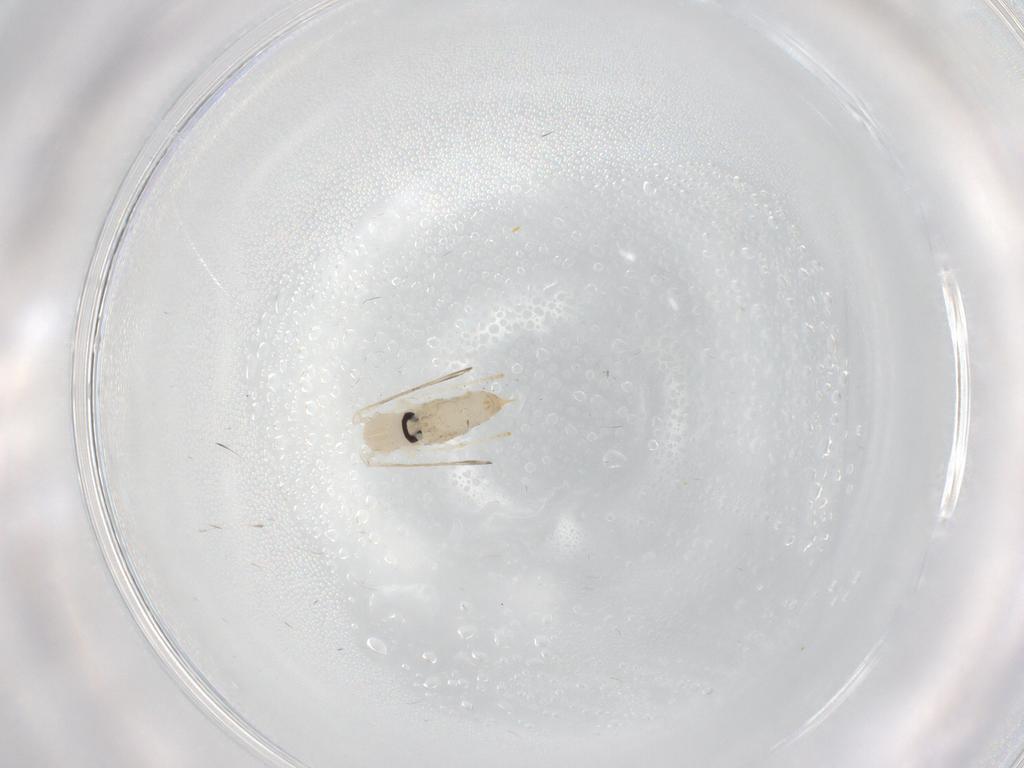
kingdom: Animalia
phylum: Arthropoda
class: Insecta
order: Diptera
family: Psychodidae
